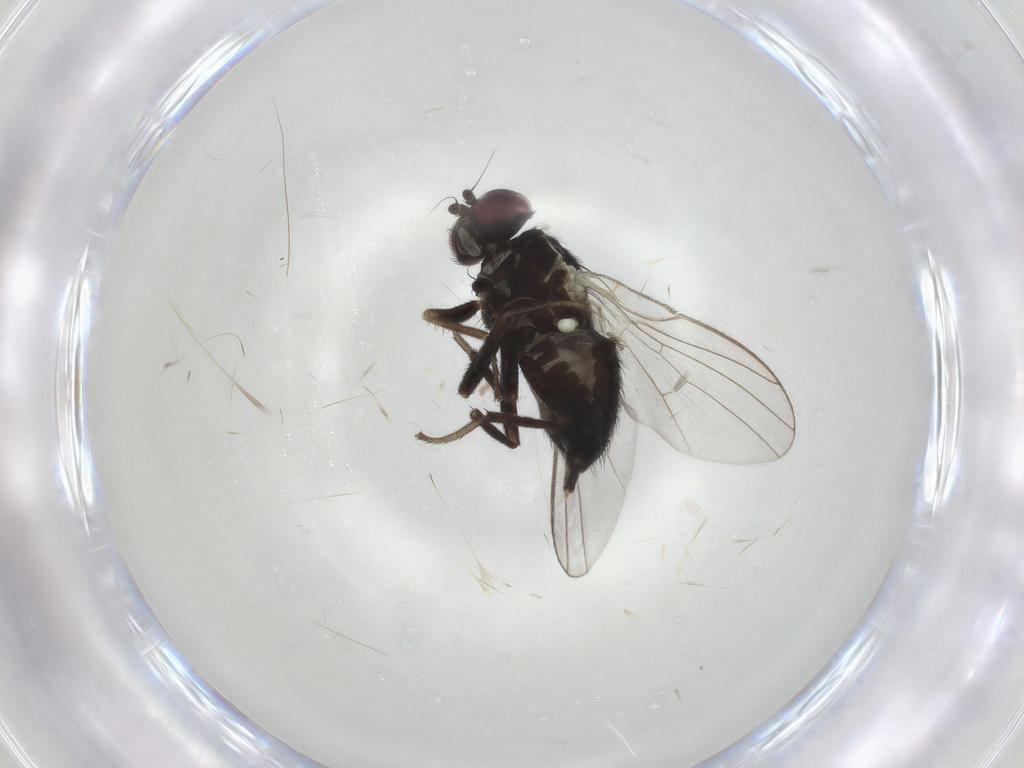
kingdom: Animalia
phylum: Arthropoda
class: Insecta
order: Diptera
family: Agromyzidae
